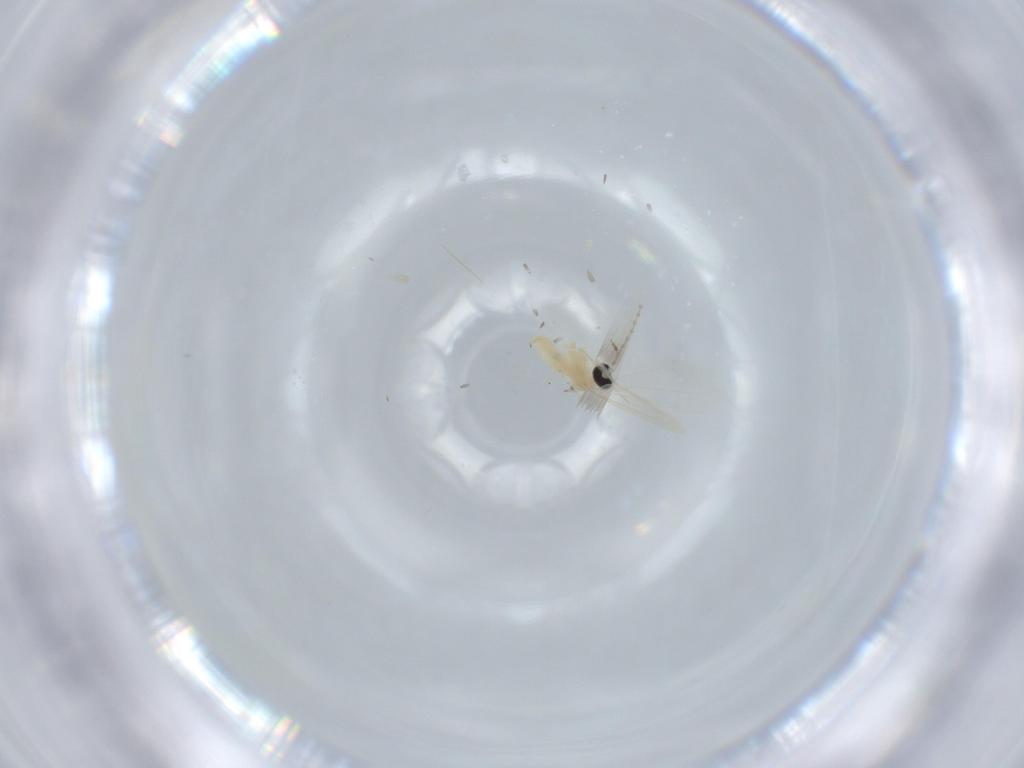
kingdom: Animalia
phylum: Arthropoda
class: Insecta
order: Diptera
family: Cecidomyiidae
